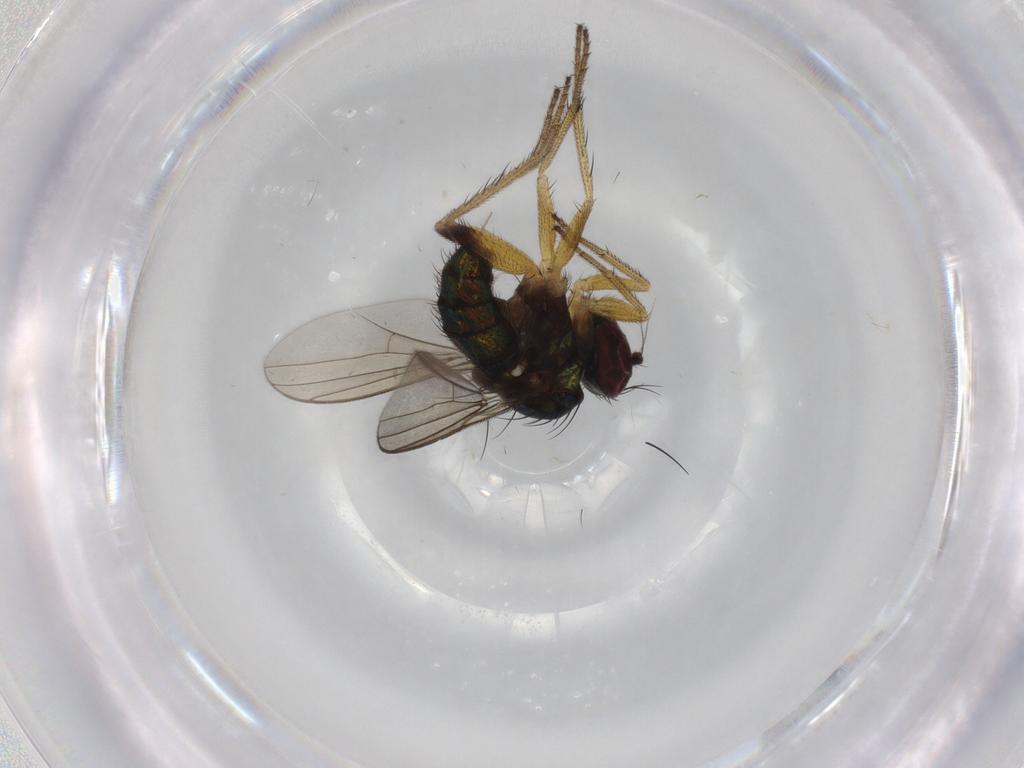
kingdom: Animalia
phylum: Arthropoda
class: Insecta
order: Diptera
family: Dolichopodidae
